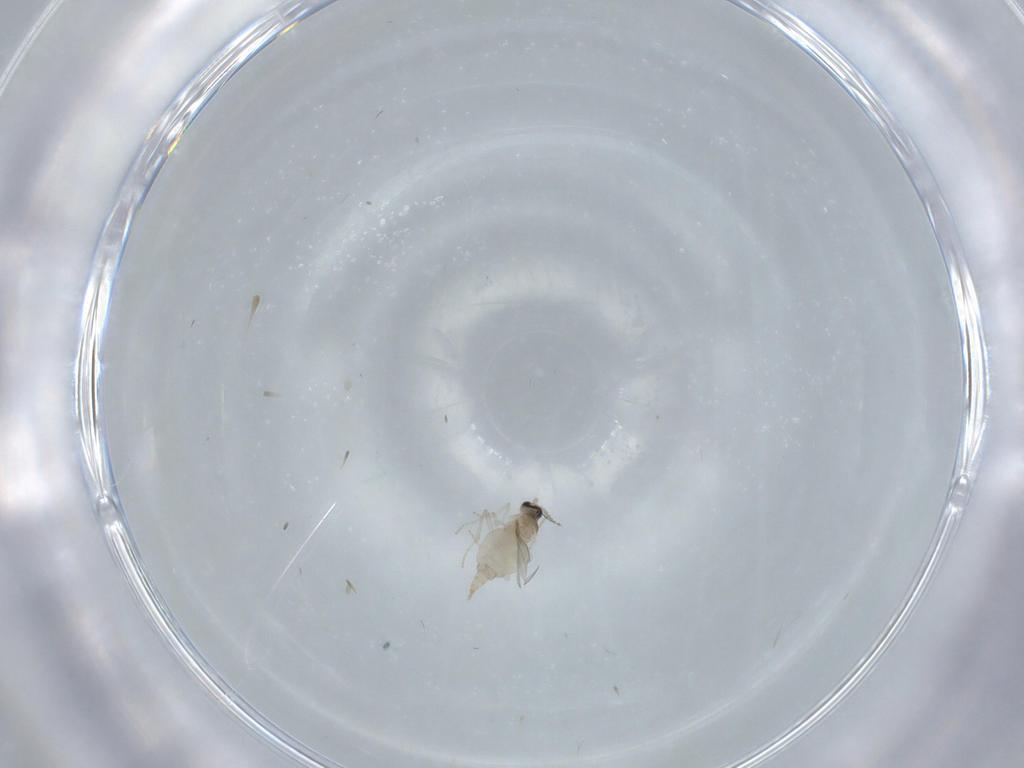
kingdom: Animalia
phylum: Arthropoda
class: Insecta
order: Diptera
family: Cecidomyiidae
